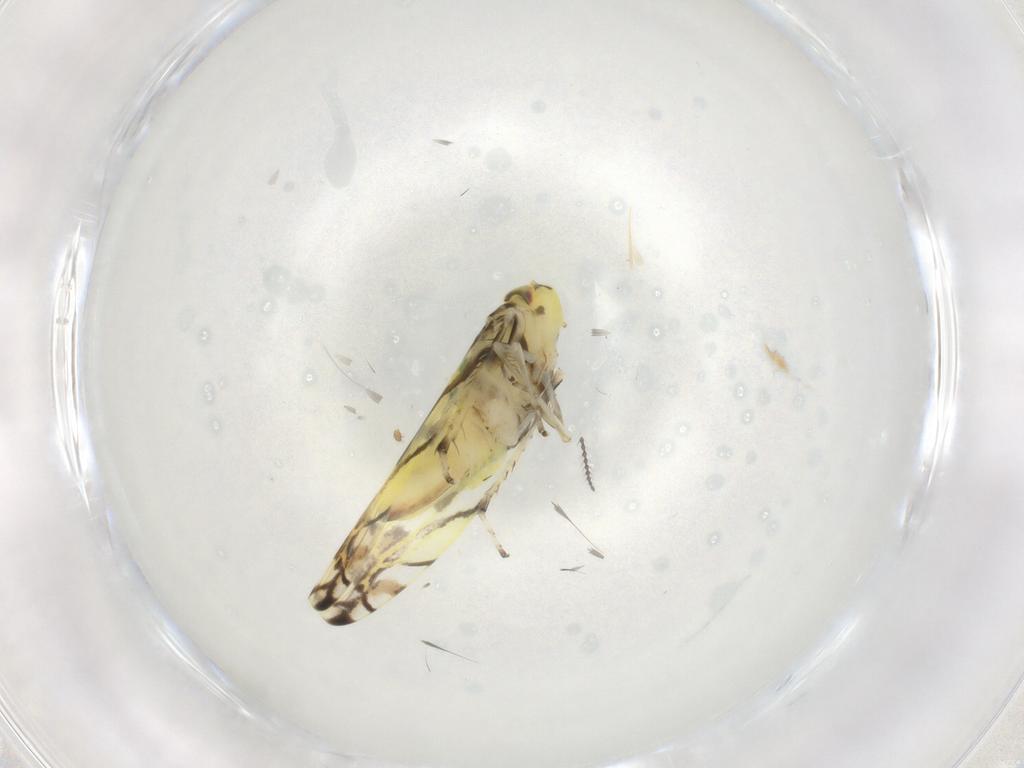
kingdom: Animalia
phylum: Arthropoda
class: Insecta
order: Hemiptera
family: Cicadellidae
